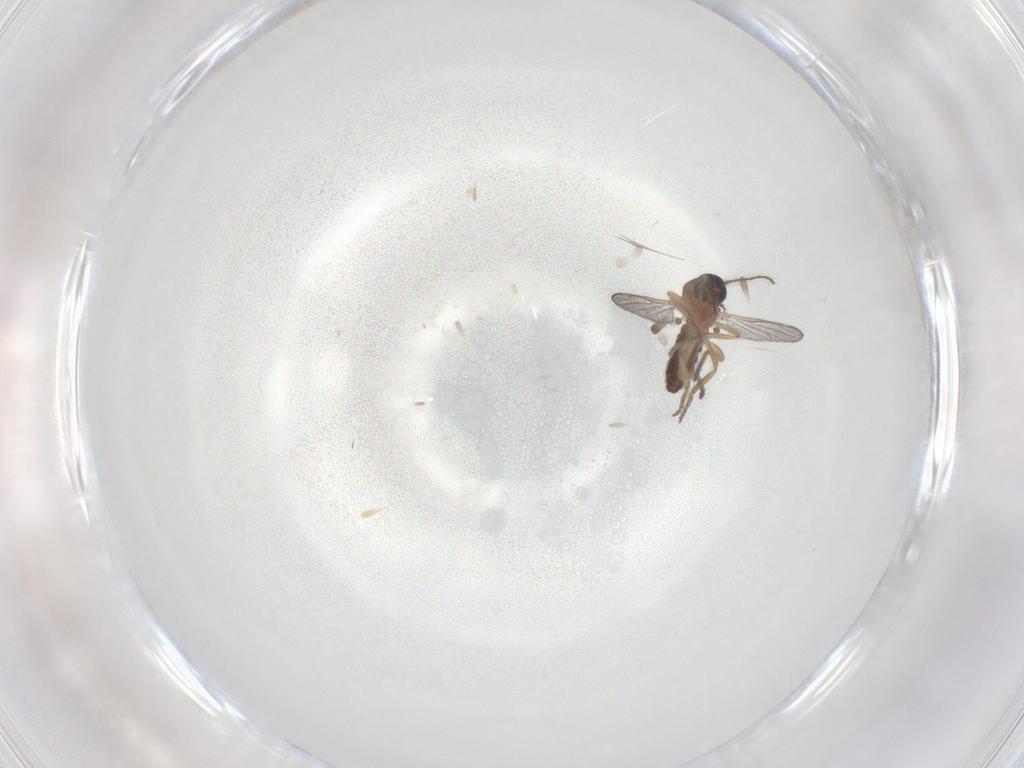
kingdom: Animalia
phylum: Arthropoda
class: Insecta
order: Diptera
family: Ceratopogonidae
